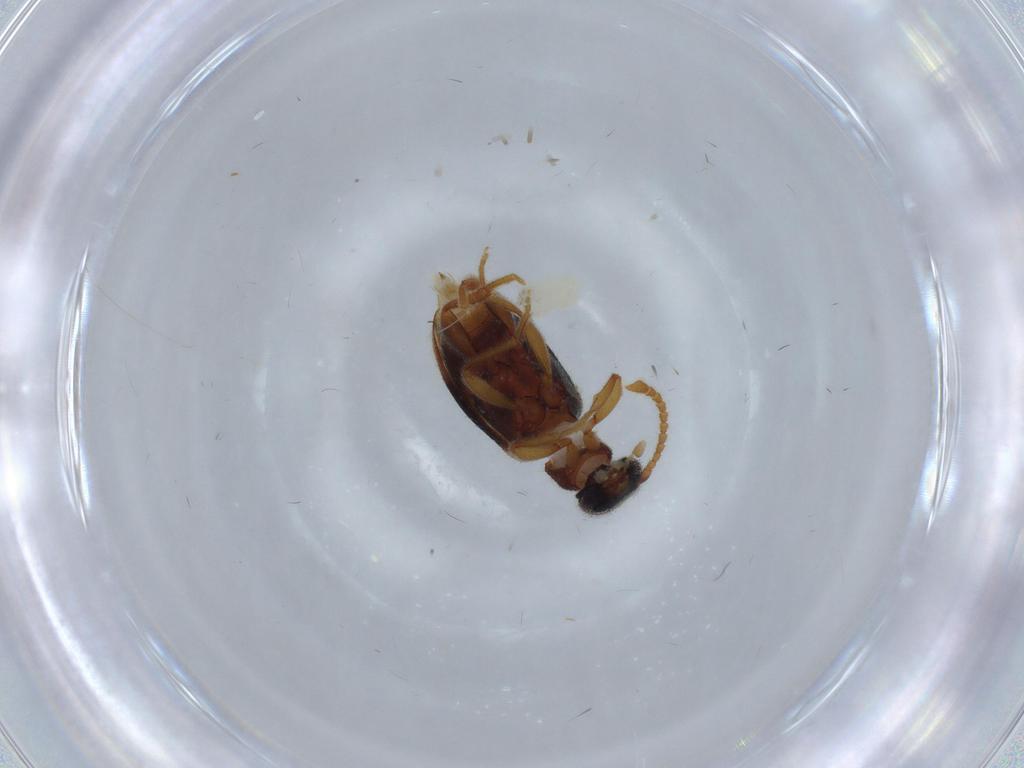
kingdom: Animalia
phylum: Arthropoda
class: Insecta
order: Coleoptera
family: Aderidae
